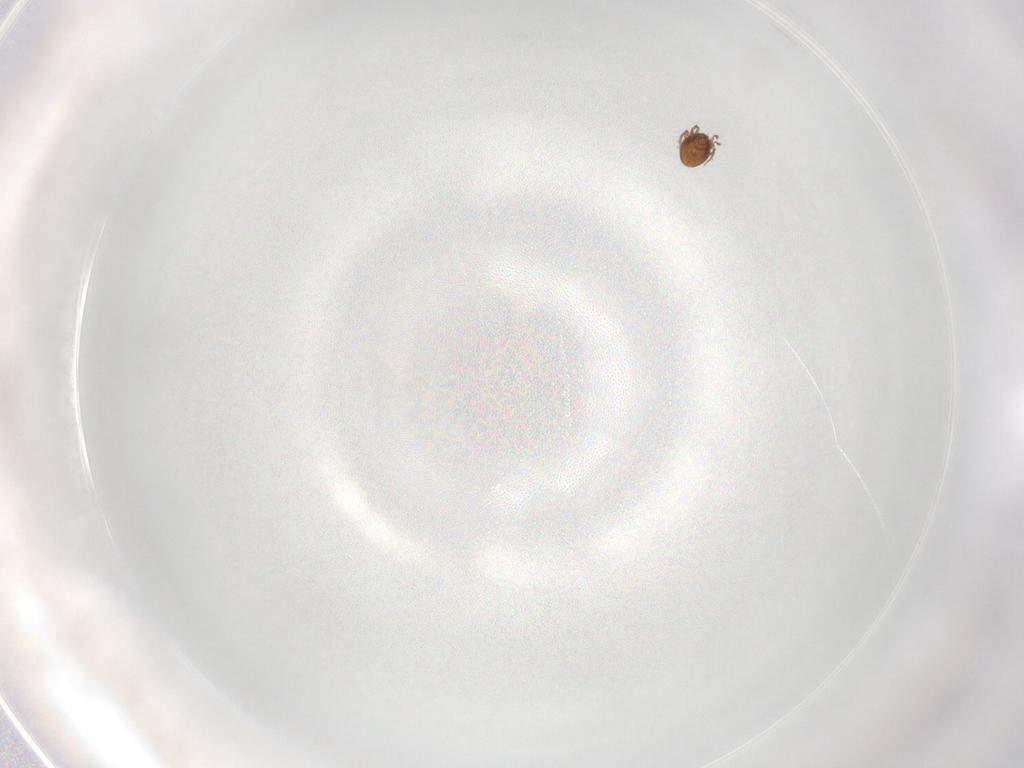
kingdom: Animalia
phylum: Arthropoda
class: Arachnida
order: Sarcoptiformes
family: Caloppiidae
